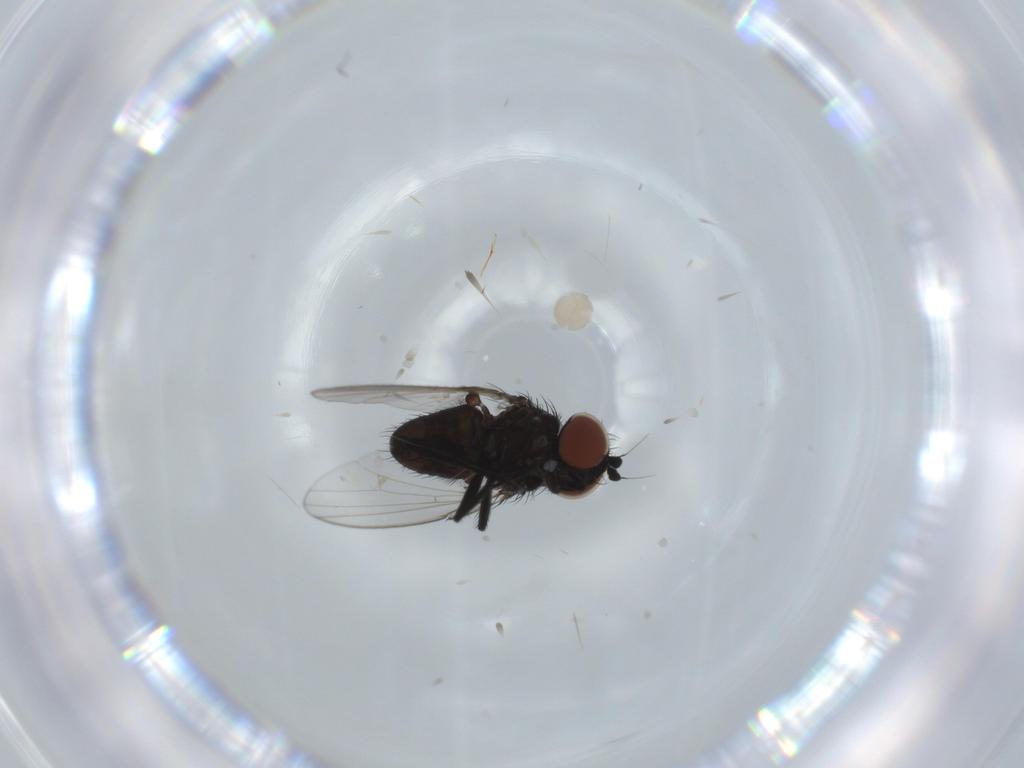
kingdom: Animalia
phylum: Arthropoda
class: Insecta
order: Diptera
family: Milichiidae
